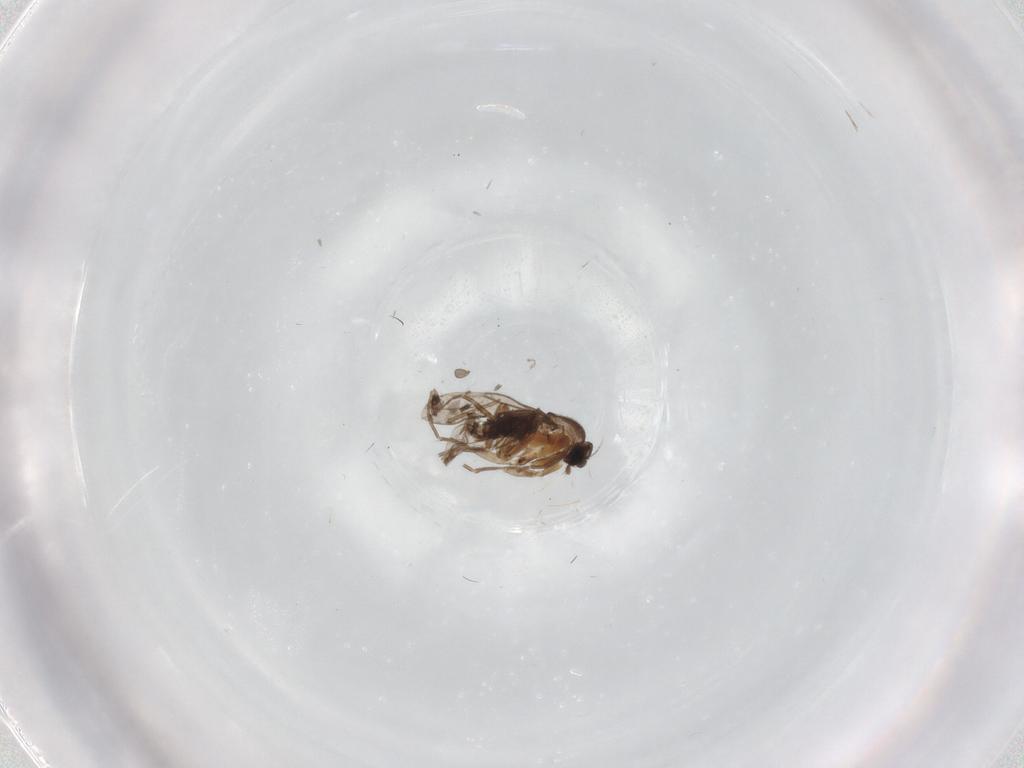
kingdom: Animalia
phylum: Arthropoda
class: Insecta
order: Diptera
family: Cecidomyiidae
